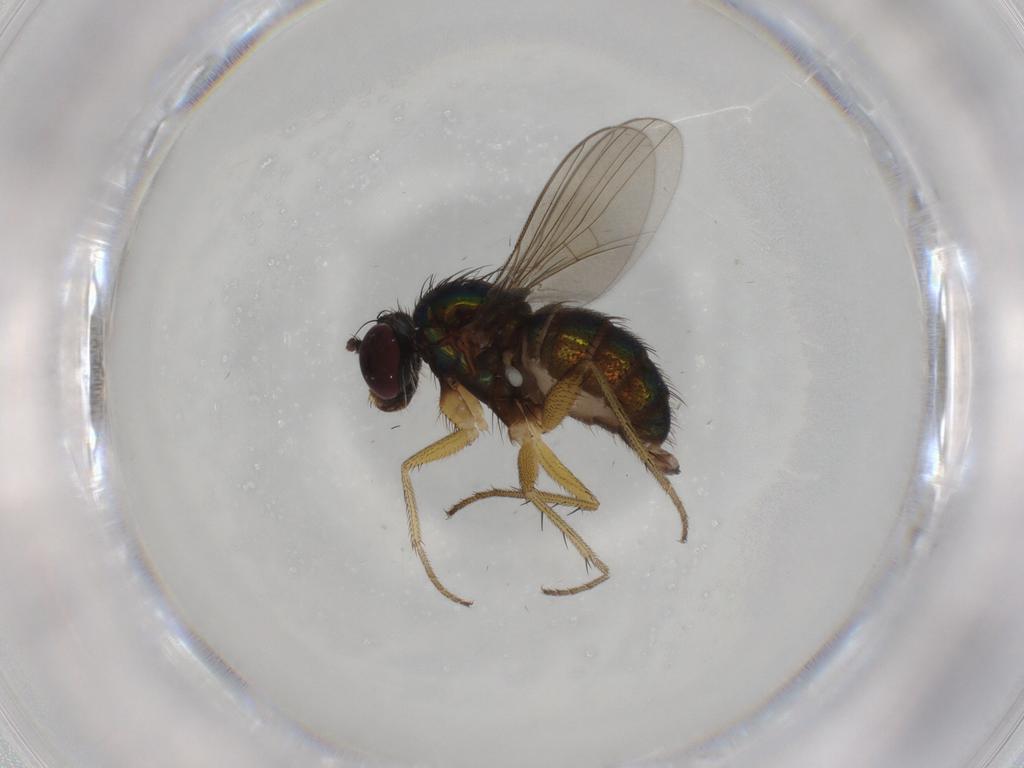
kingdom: Animalia
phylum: Arthropoda
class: Insecta
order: Diptera
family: Dolichopodidae
